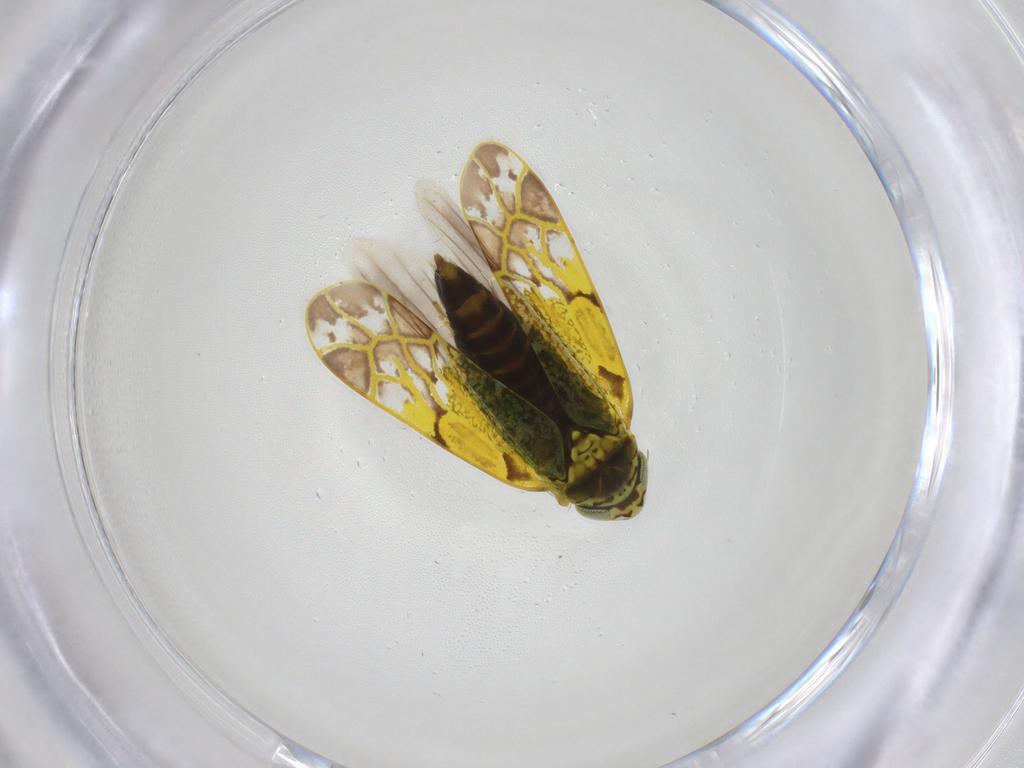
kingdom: Animalia
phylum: Arthropoda
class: Insecta
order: Hemiptera
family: Cicadellidae
